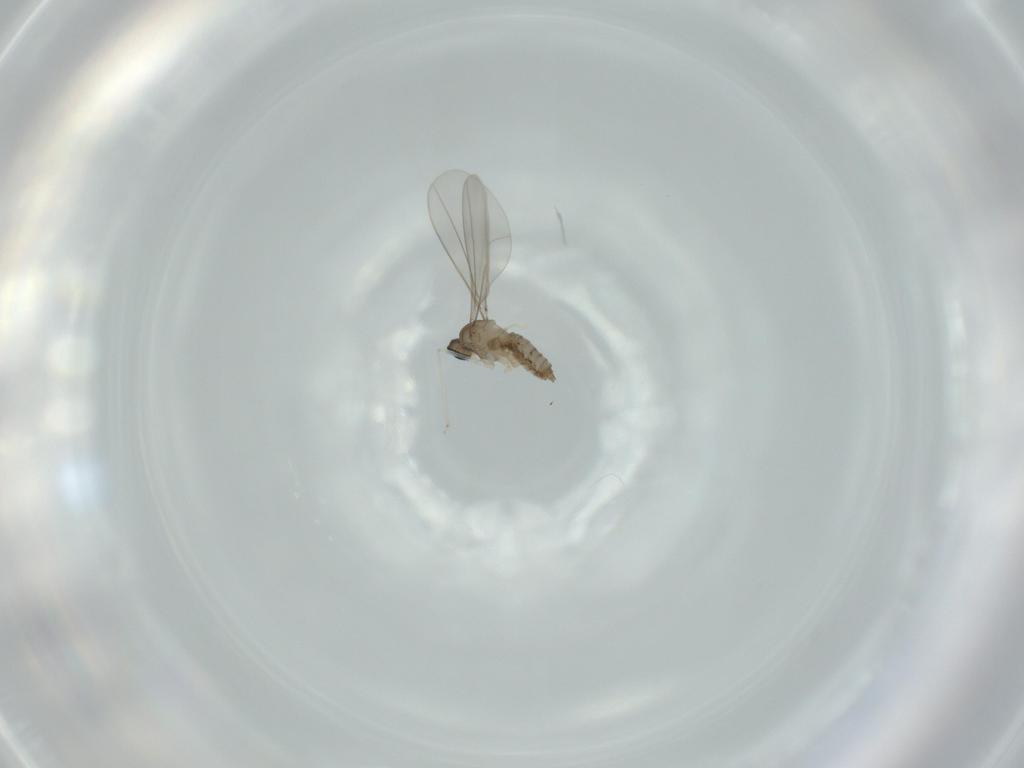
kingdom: Animalia
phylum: Arthropoda
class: Insecta
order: Diptera
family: Cecidomyiidae
